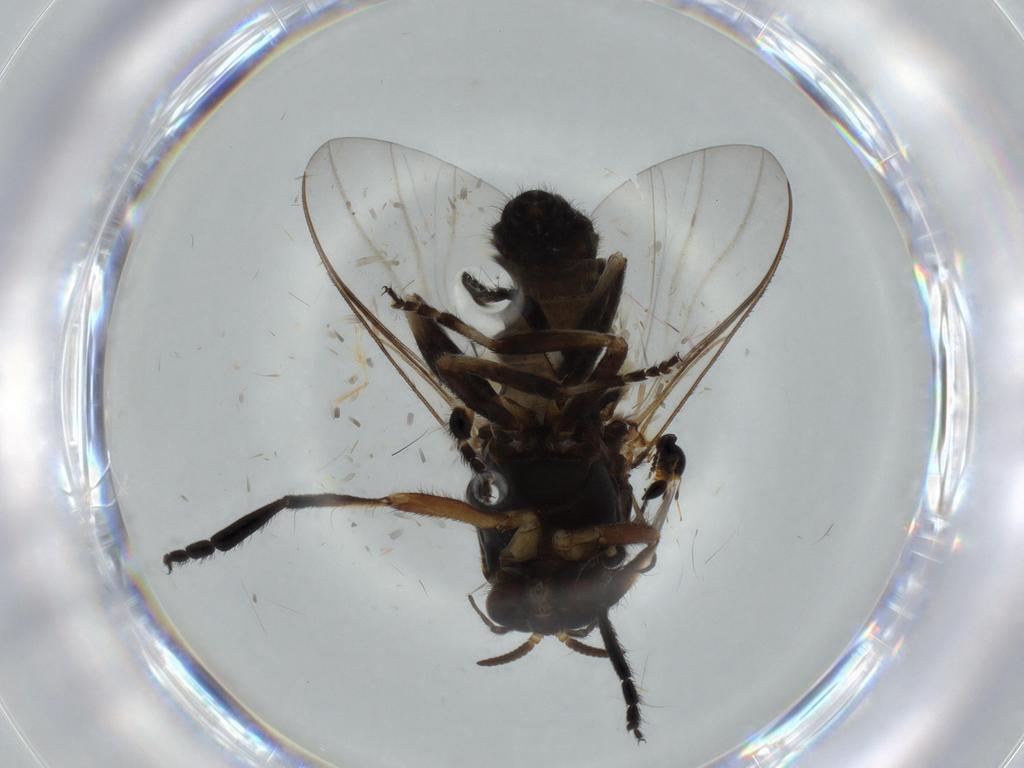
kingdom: Animalia
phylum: Arthropoda
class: Insecta
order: Diptera
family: Phoridae
